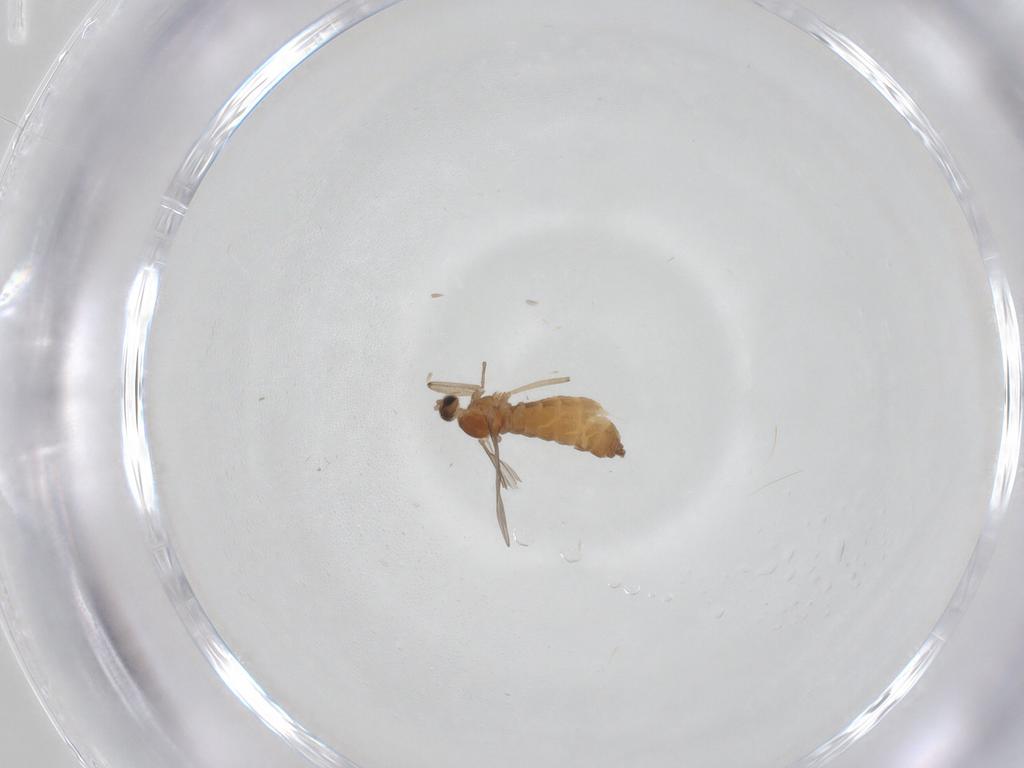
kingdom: Animalia
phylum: Arthropoda
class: Insecta
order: Diptera
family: Cecidomyiidae
